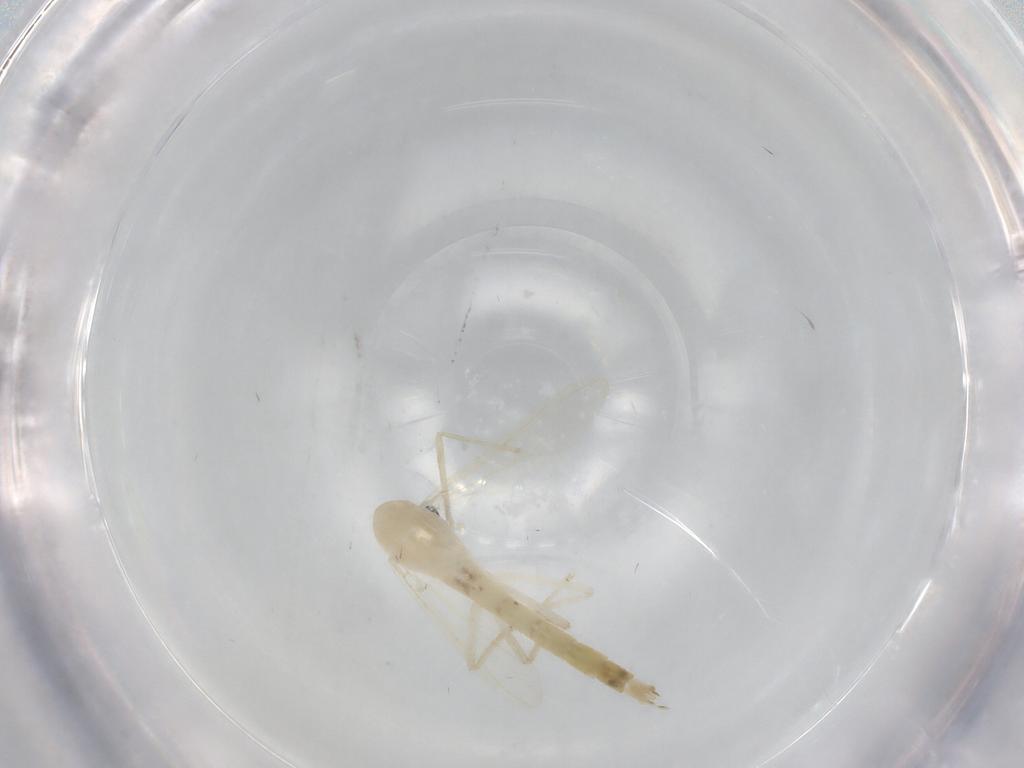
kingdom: Animalia
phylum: Arthropoda
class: Insecta
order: Diptera
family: Chironomidae
